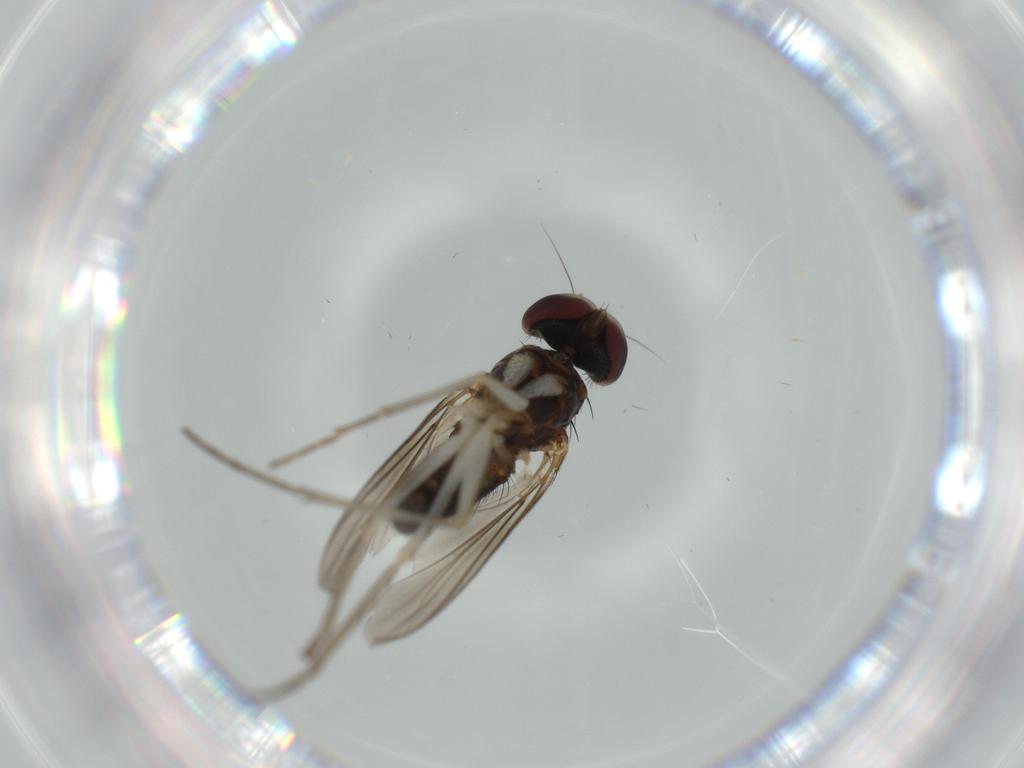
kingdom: Animalia
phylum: Arthropoda
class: Insecta
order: Diptera
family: Dolichopodidae
